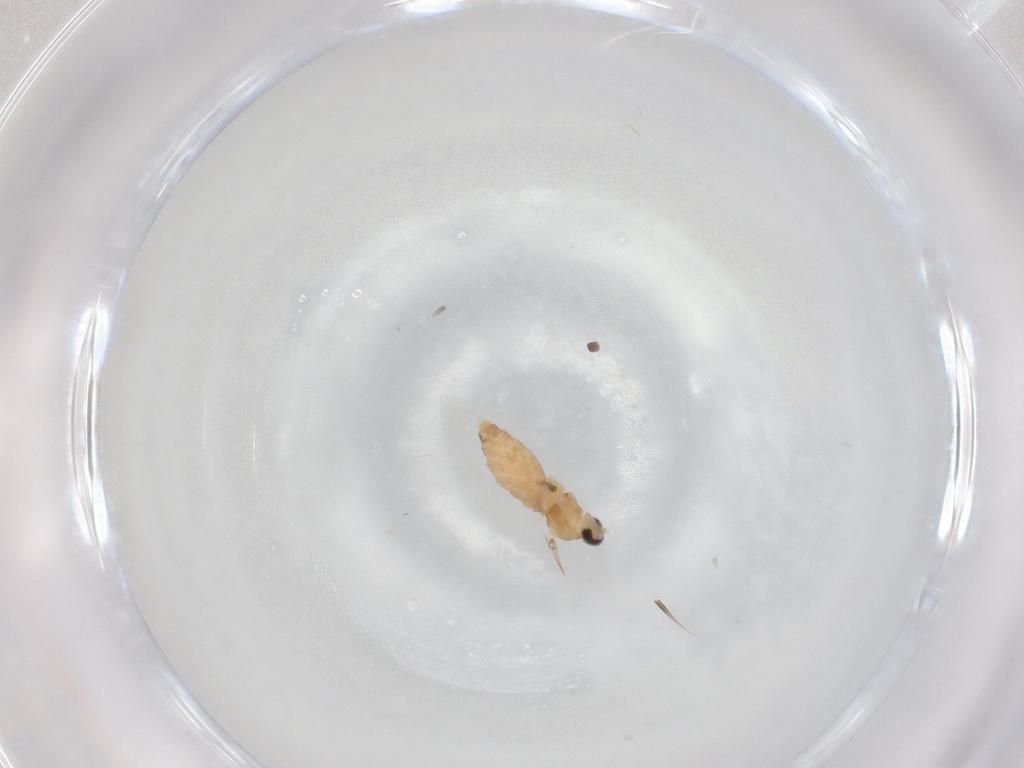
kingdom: Animalia
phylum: Arthropoda
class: Insecta
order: Diptera
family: Cecidomyiidae
